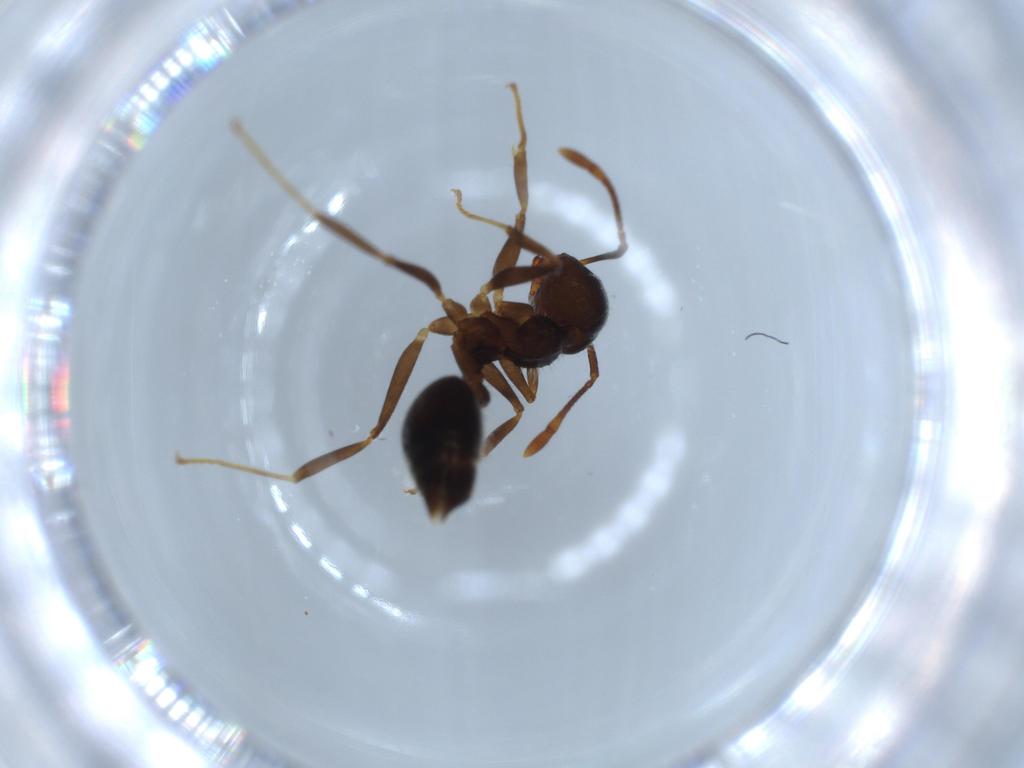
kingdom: Animalia
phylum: Arthropoda
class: Insecta
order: Hymenoptera
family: Formicidae
